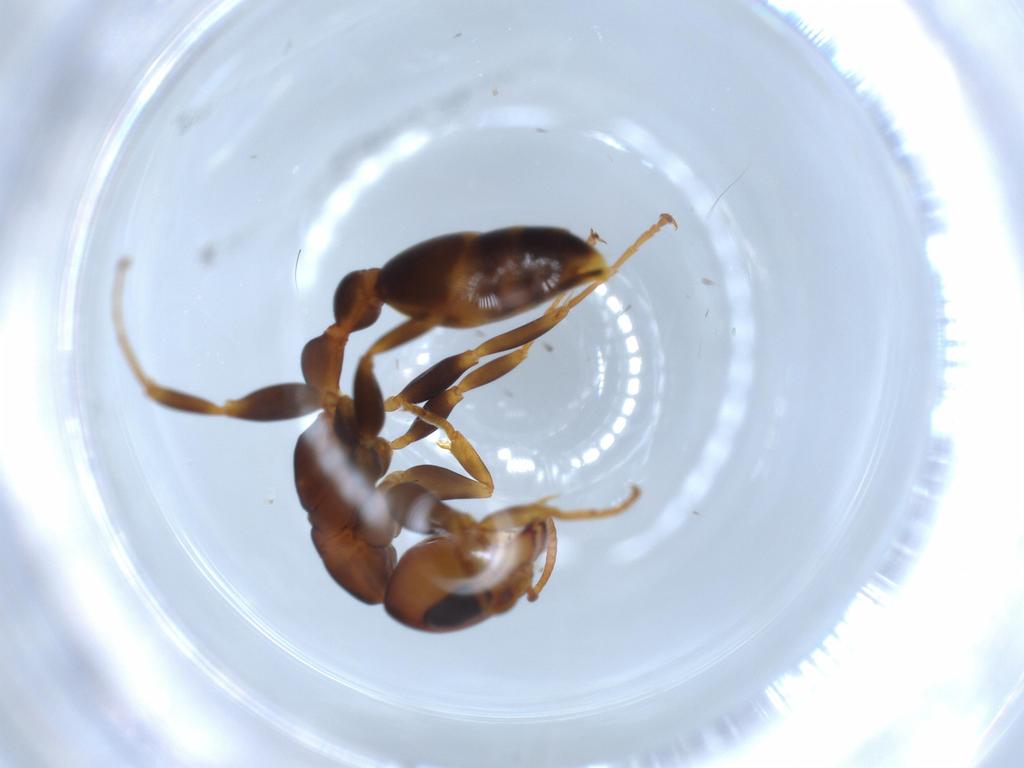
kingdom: Animalia
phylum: Arthropoda
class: Insecta
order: Hymenoptera
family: Formicidae
